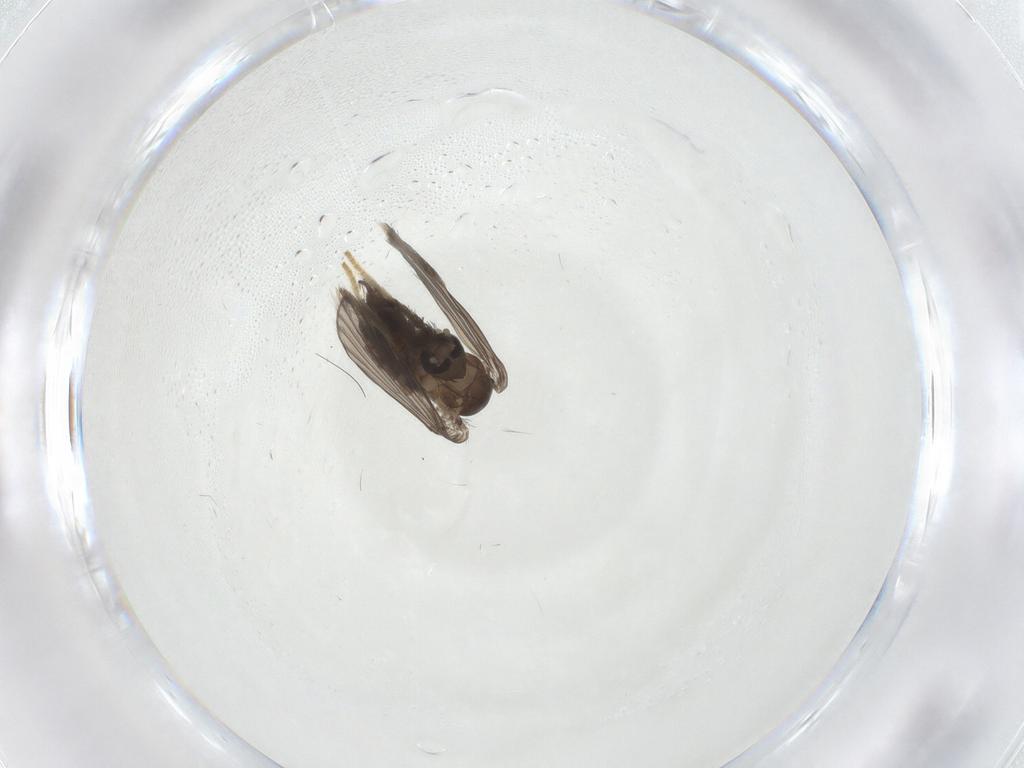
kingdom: Animalia
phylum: Arthropoda
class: Insecta
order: Diptera
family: Psychodidae
